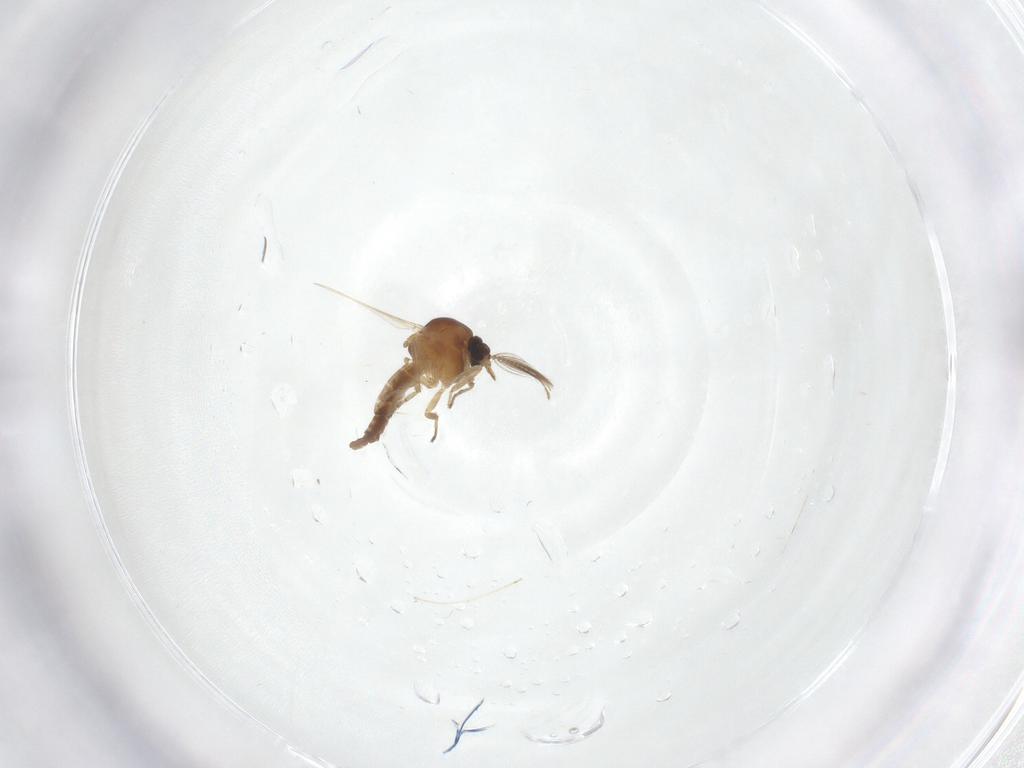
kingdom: Animalia
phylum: Arthropoda
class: Insecta
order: Diptera
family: Ceratopogonidae
